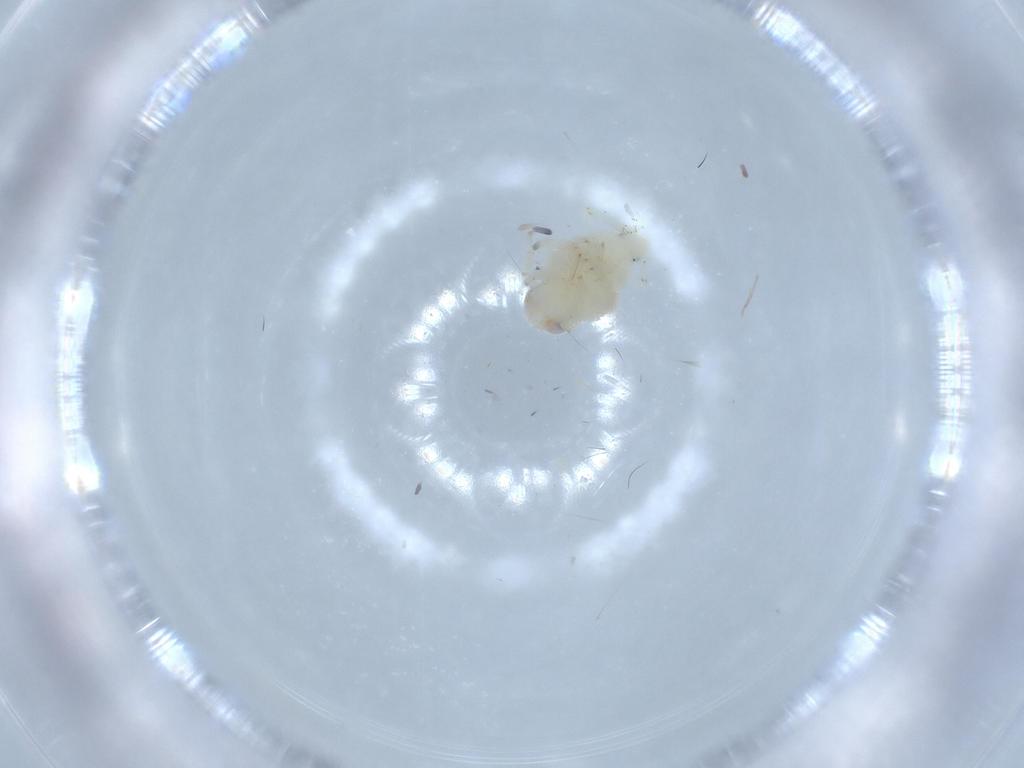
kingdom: Animalia
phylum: Arthropoda
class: Insecta
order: Hemiptera
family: Nogodinidae
